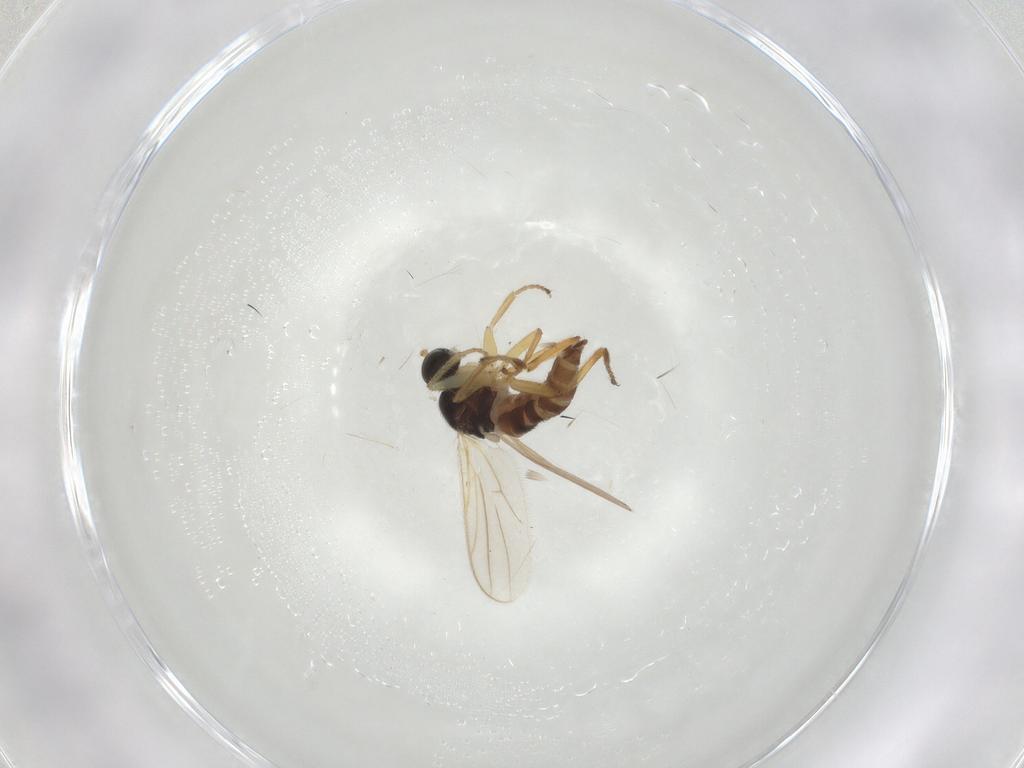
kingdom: Animalia
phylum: Arthropoda
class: Insecta
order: Diptera
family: Hybotidae
